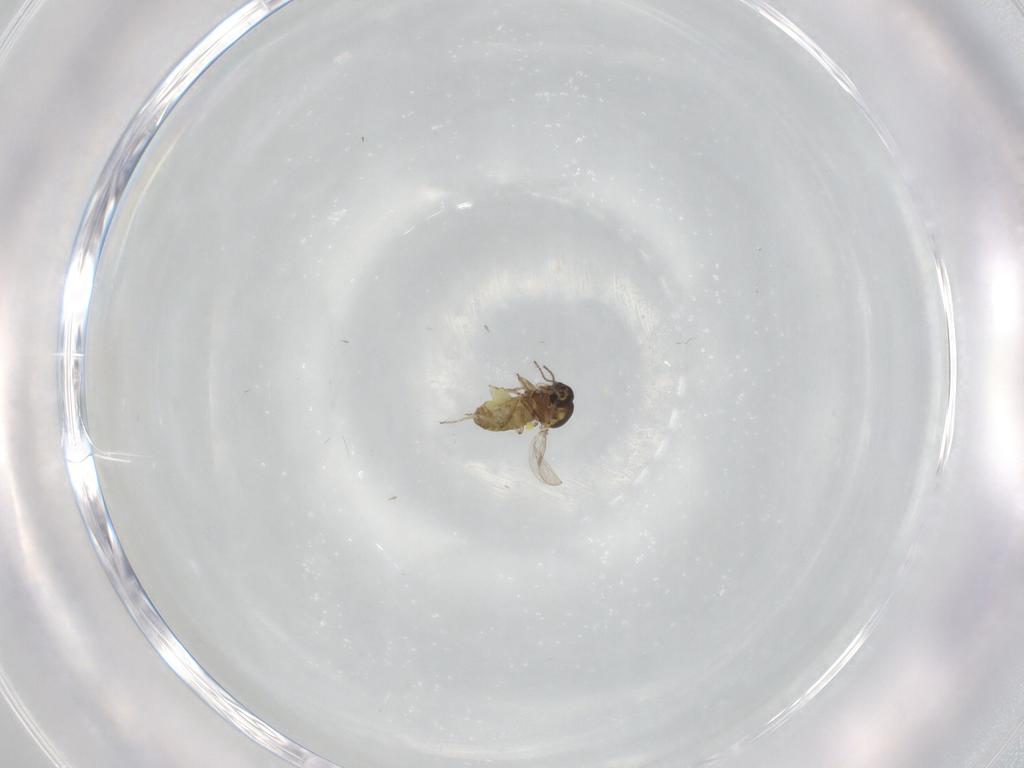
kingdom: Animalia
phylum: Arthropoda
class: Insecta
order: Diptera
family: Ceratopogonidae
